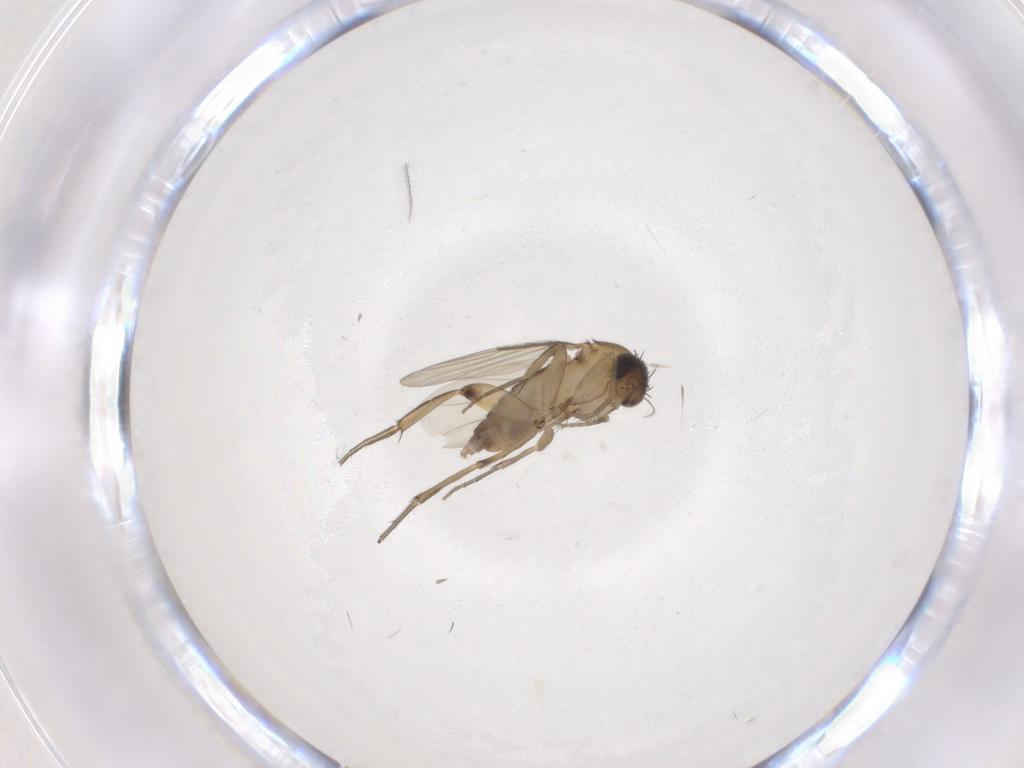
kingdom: Animalia
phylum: Arthropoda
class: Insecta
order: Diptera
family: Phoridae
